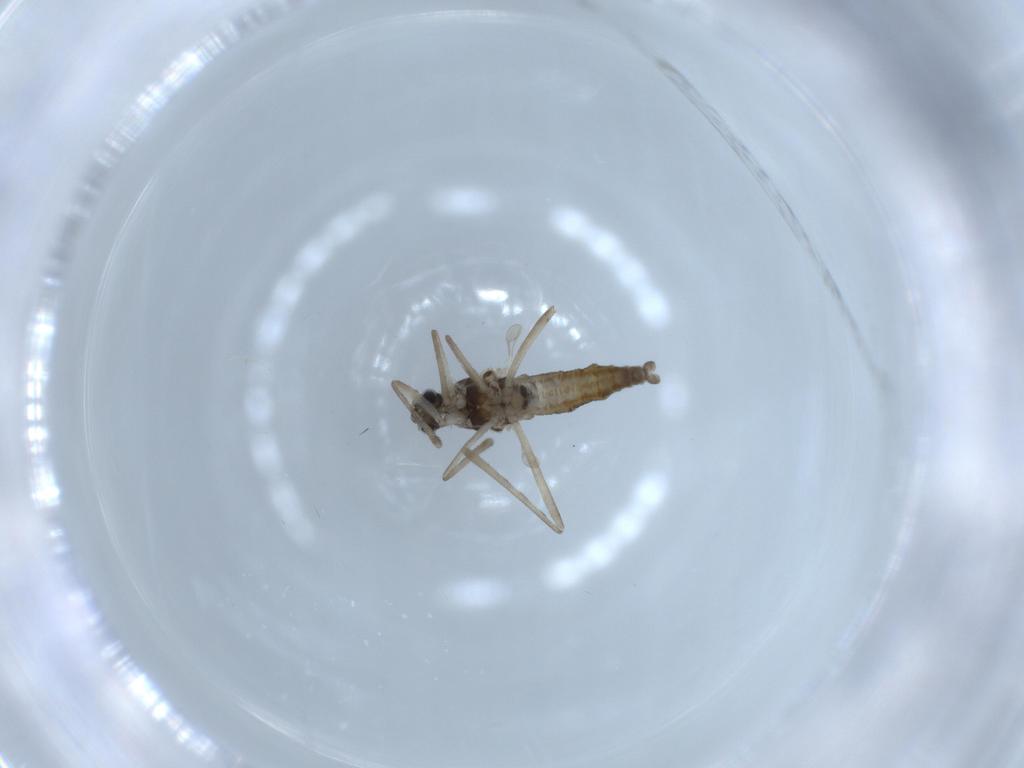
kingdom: Animalia
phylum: Arthropoda
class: Insecta
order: Diptera
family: Cecidomyiidae
